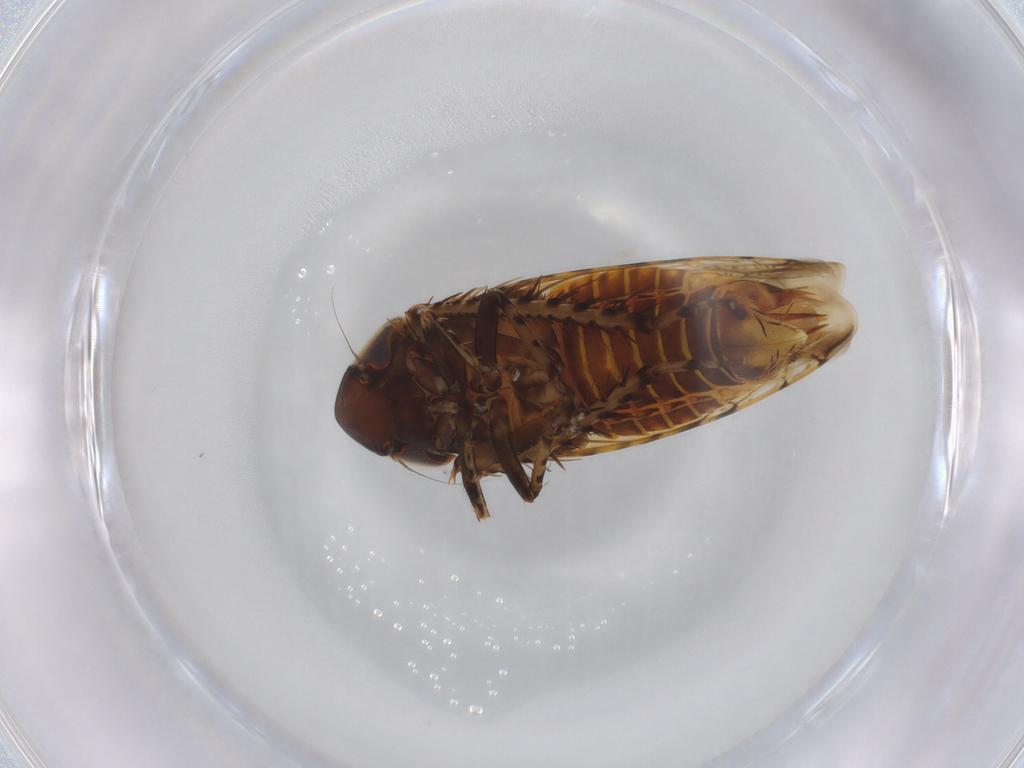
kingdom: Animalia
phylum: Arthropoda
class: Insecta
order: Hemiptera
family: Cicadellidae
